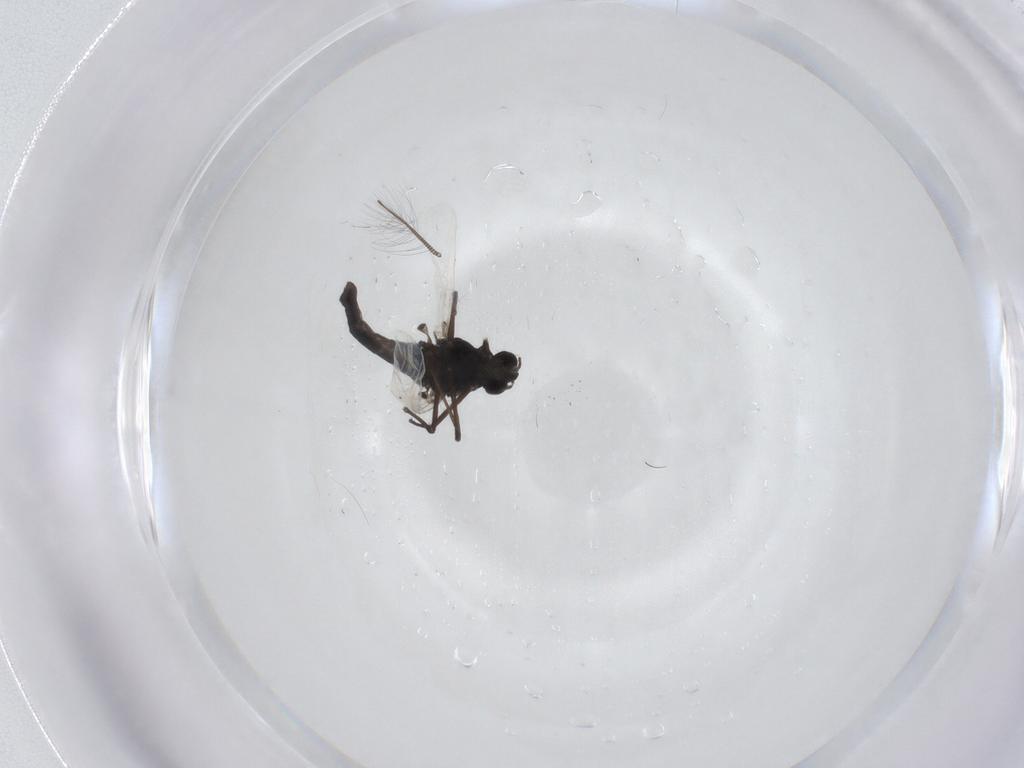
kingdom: Animalia
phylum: Arthropoda
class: Insecta
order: Diptera
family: Chironomidae
